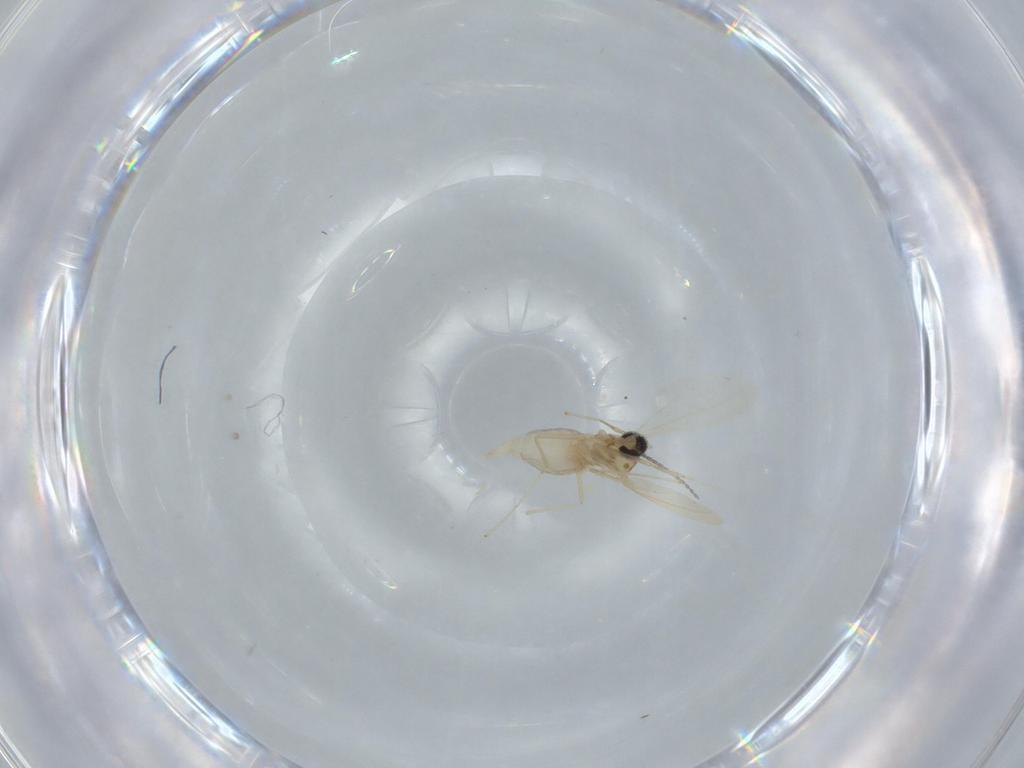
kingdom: Animalia
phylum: Arthropoda
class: Insecta
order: Diptera
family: Cecidomyiidae
